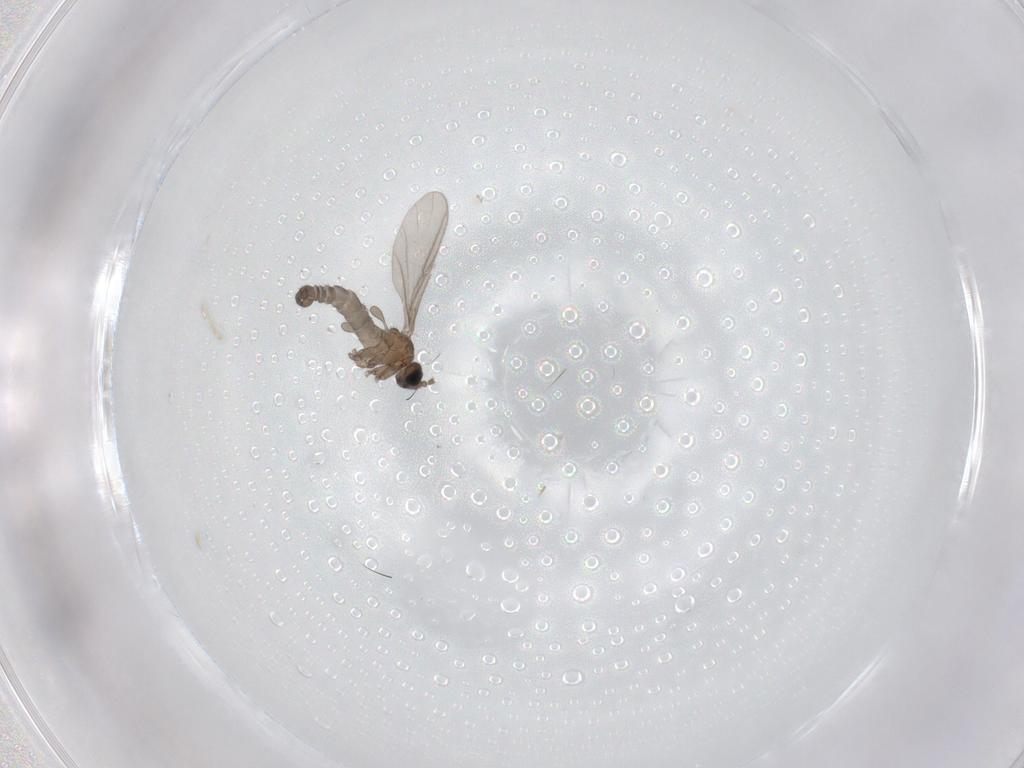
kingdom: Animalia
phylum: Arthropoda
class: Insecta
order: Diptera
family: Sciaridae
